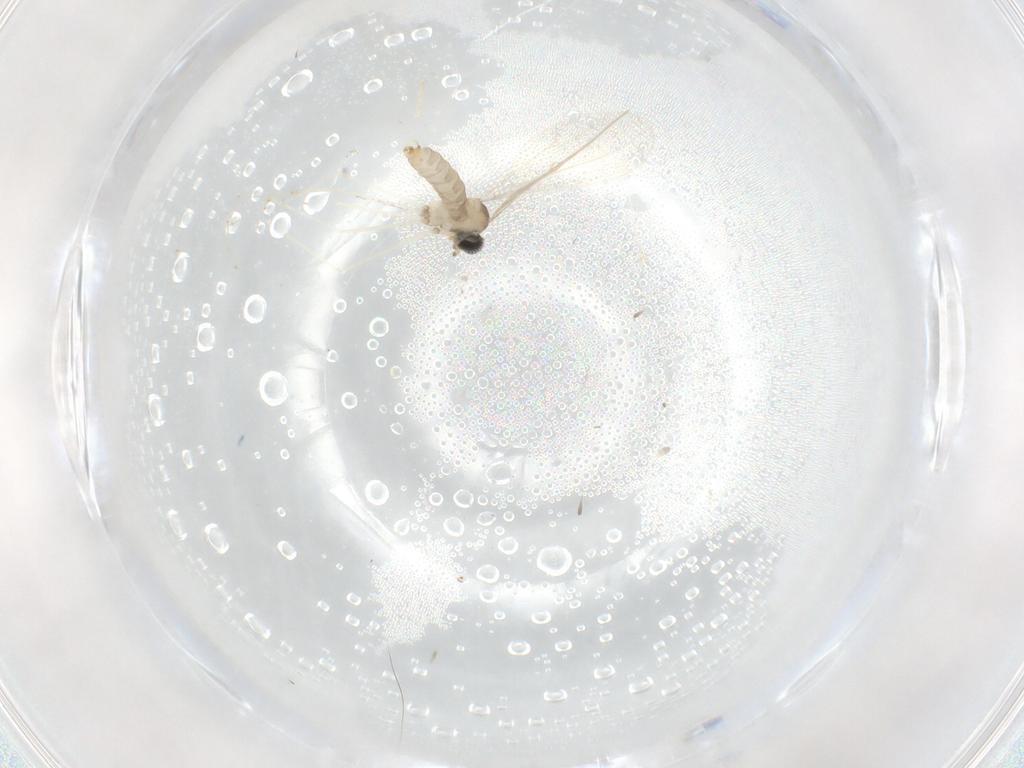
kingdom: Animalia
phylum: Arthropoda
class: Insecta
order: Diptera
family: Cecidomyiidae
